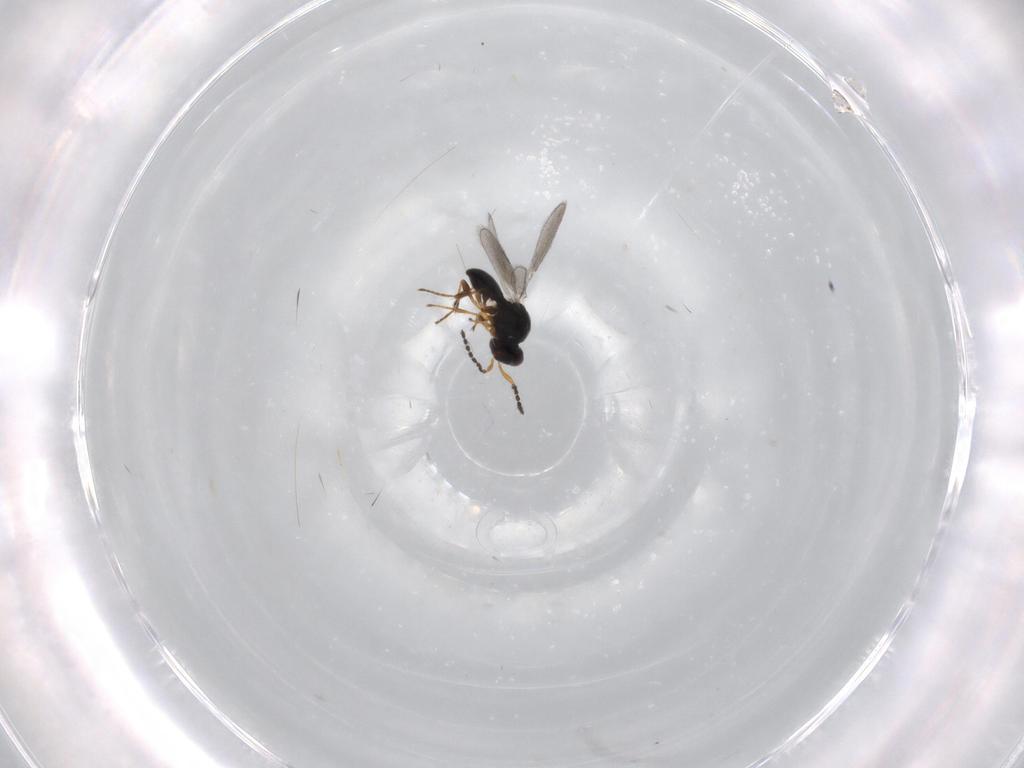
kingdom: Animalia
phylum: Arthropoda
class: Insecta
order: Hymenoptera
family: Platygastridae
